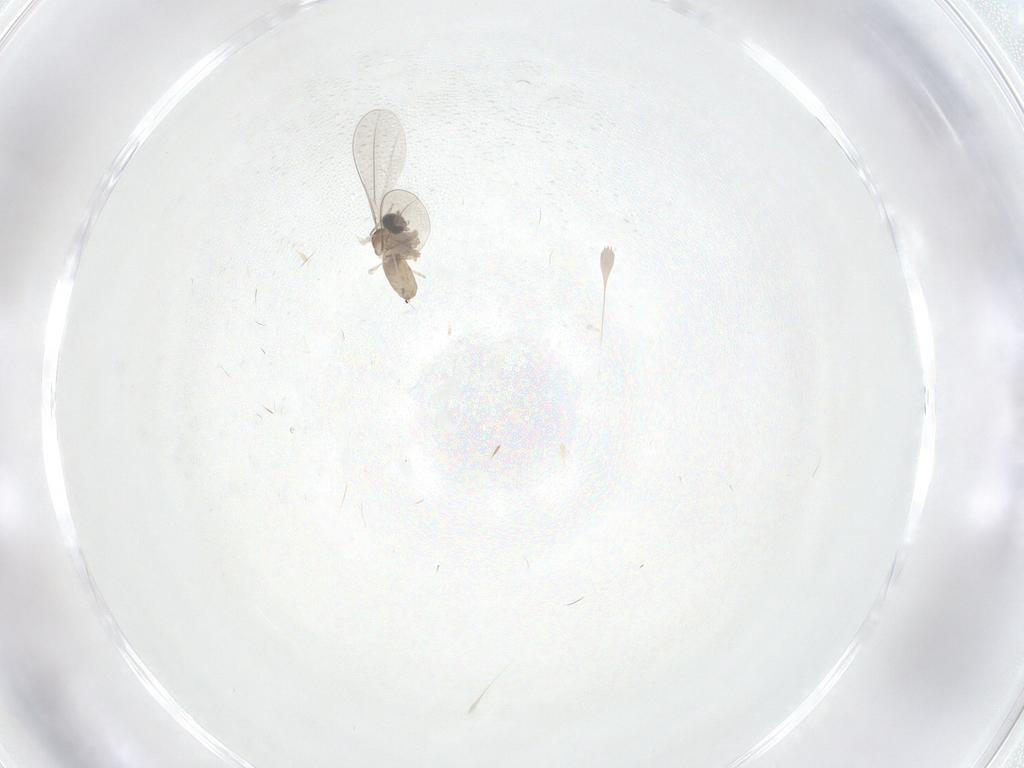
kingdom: Animalia
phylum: Arthropoda
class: Insecta
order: Diptera
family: Cecidomyiidae
